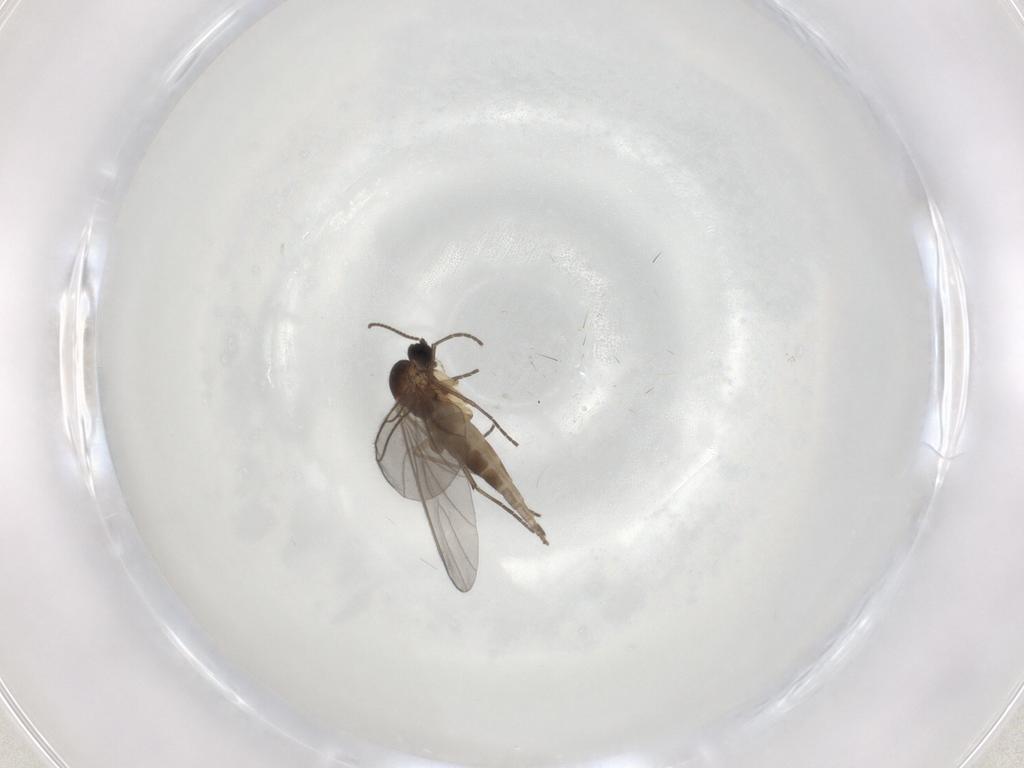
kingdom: Animalia
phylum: Arthropoda
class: Insecta
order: Diptera
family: Sciaridae
